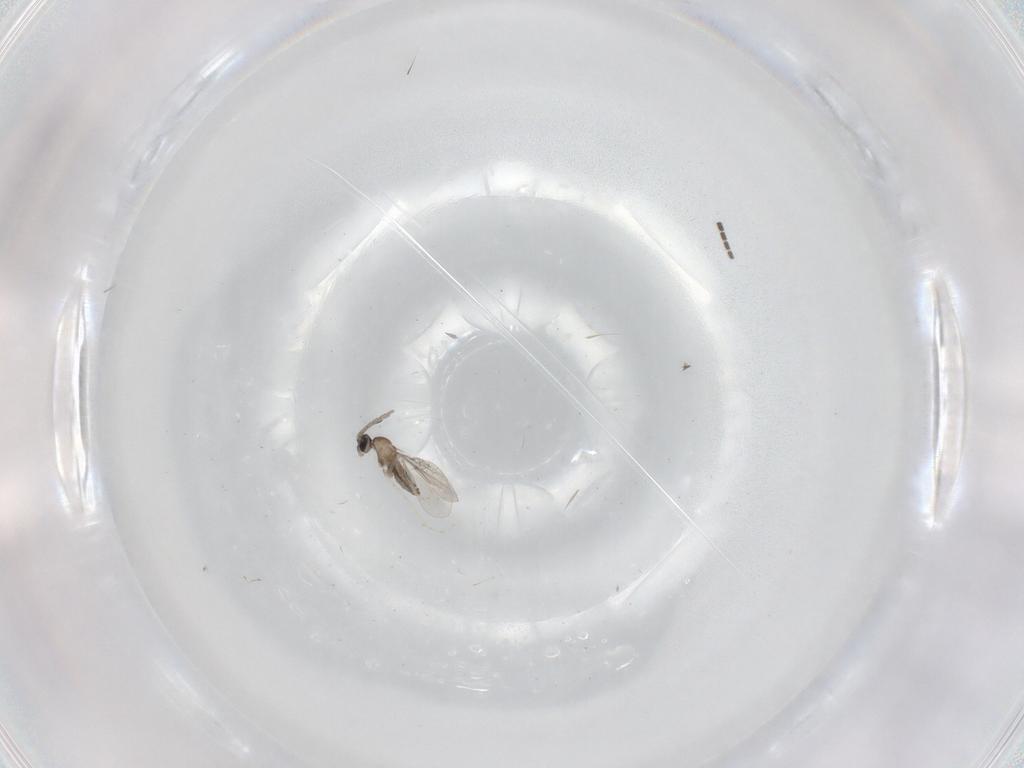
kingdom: Animalia
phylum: Arthropoda
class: Insecta
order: Diptera
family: Cecidomyiidae
